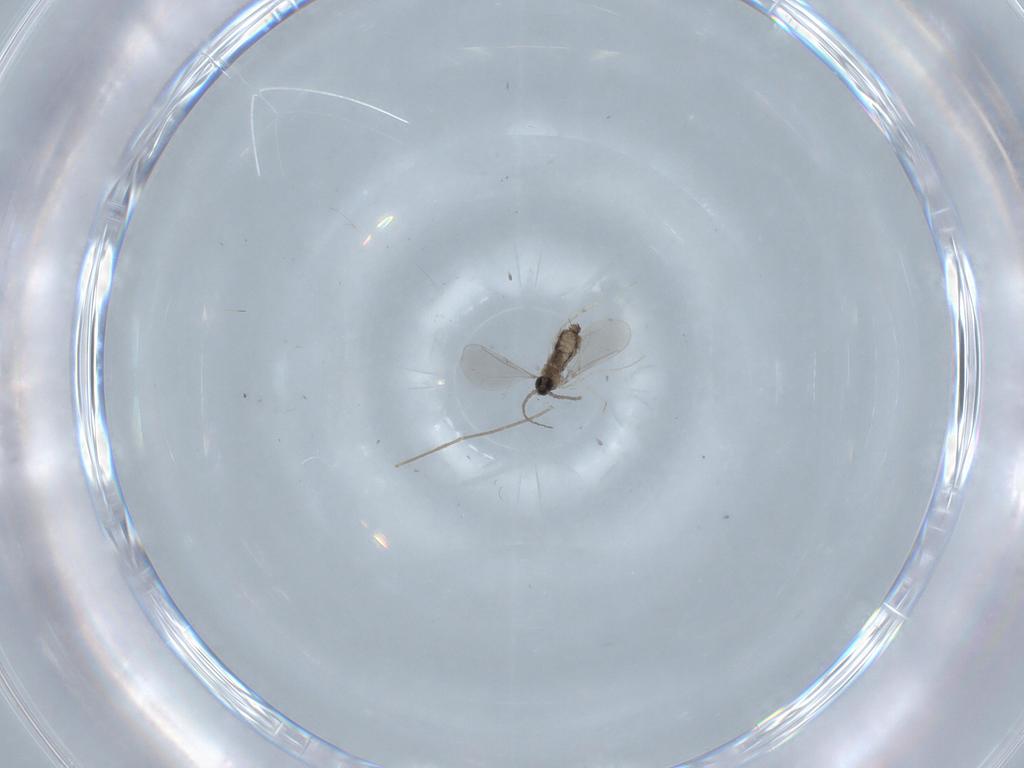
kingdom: Animalia
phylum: Arthropoda
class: Insecta
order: Diptera
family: Cecidomyiidae
